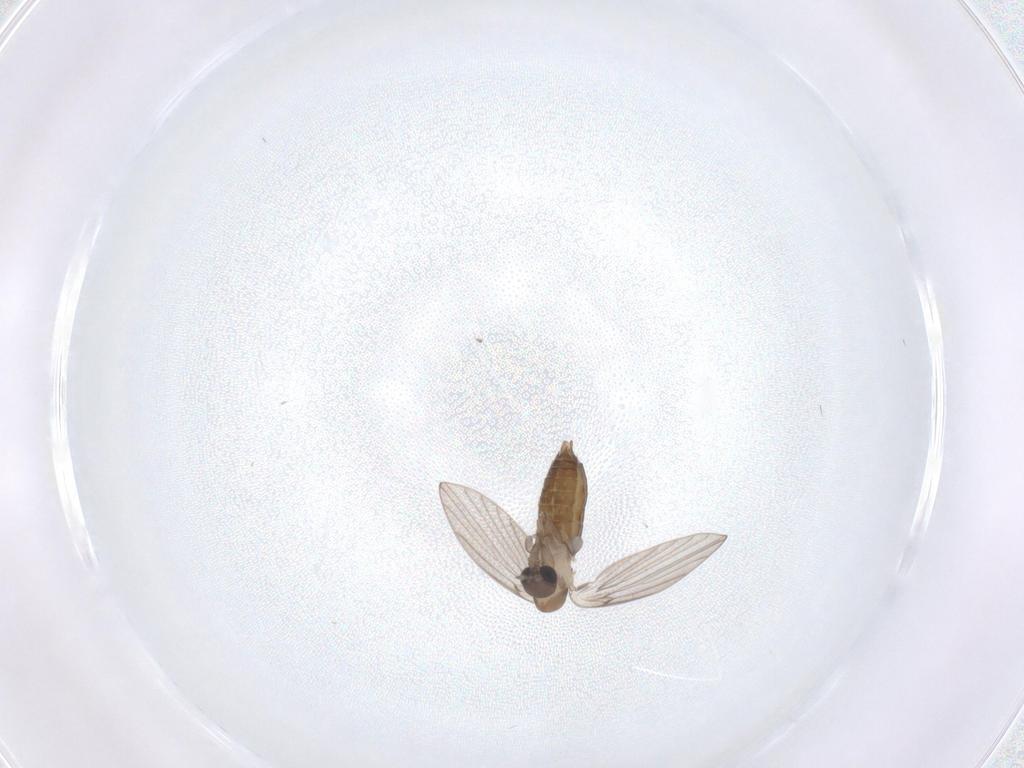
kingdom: Animalia
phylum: Arthropoda
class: Insecta
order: Diptera
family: Psychodidae
